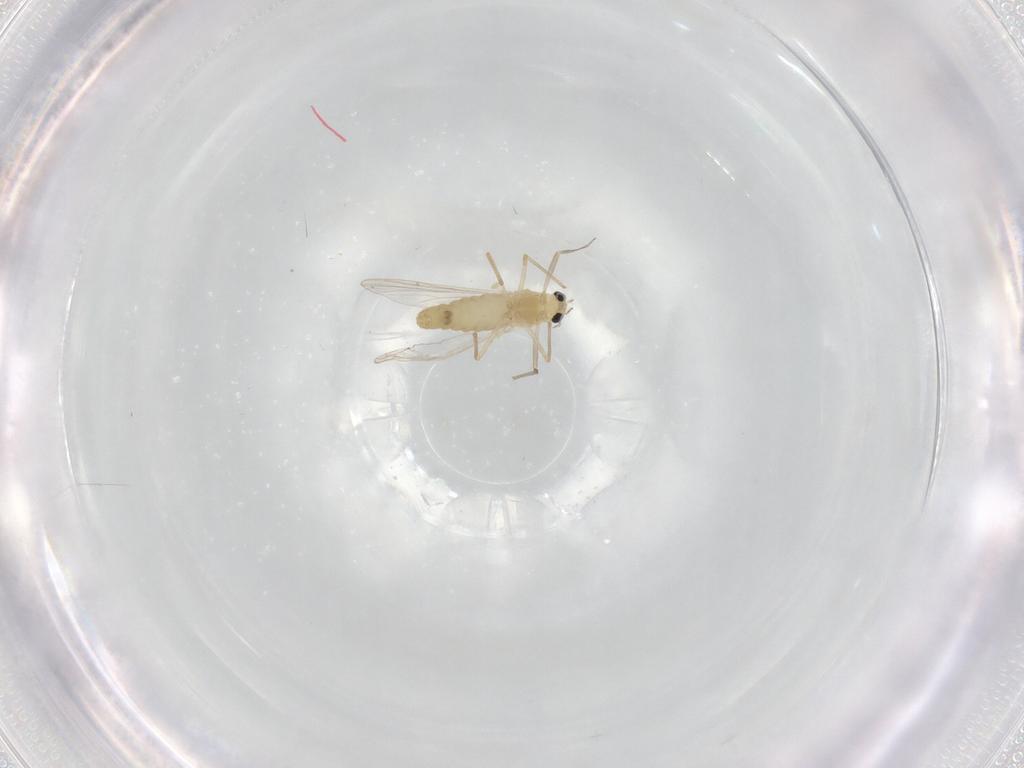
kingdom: Animalia
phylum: Arthropoda
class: Insecta
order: Diptera
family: Chironomidae
